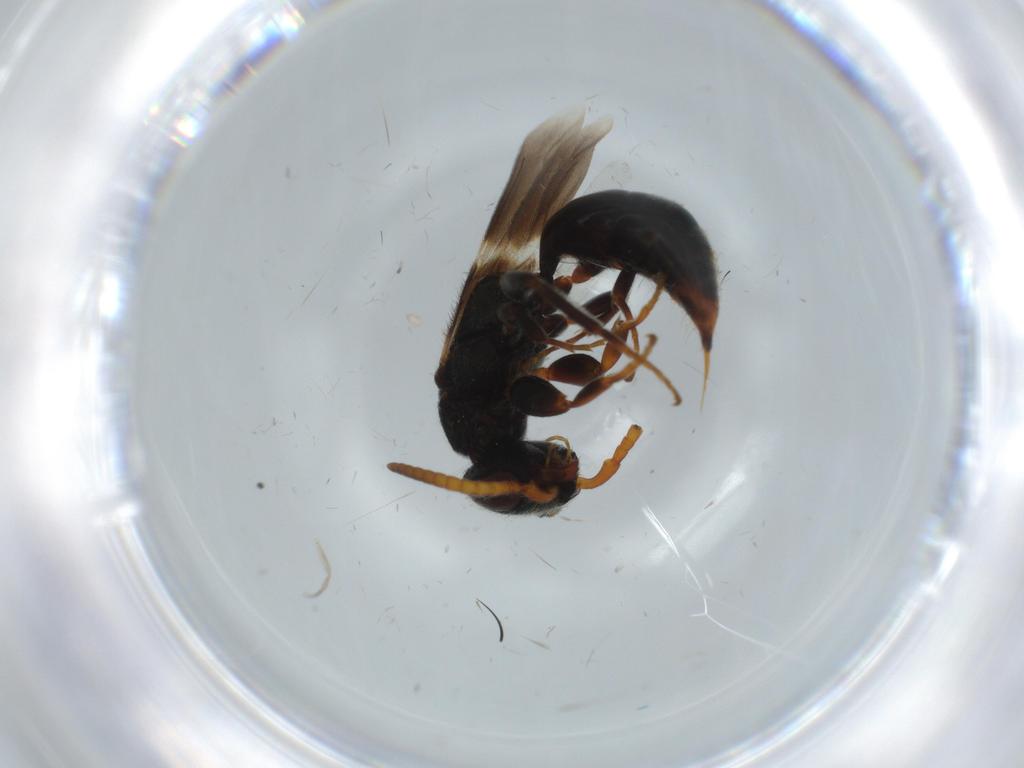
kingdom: Animalia
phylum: Arthropoda
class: Insecta
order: Hymenoptera
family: Bethylidae
